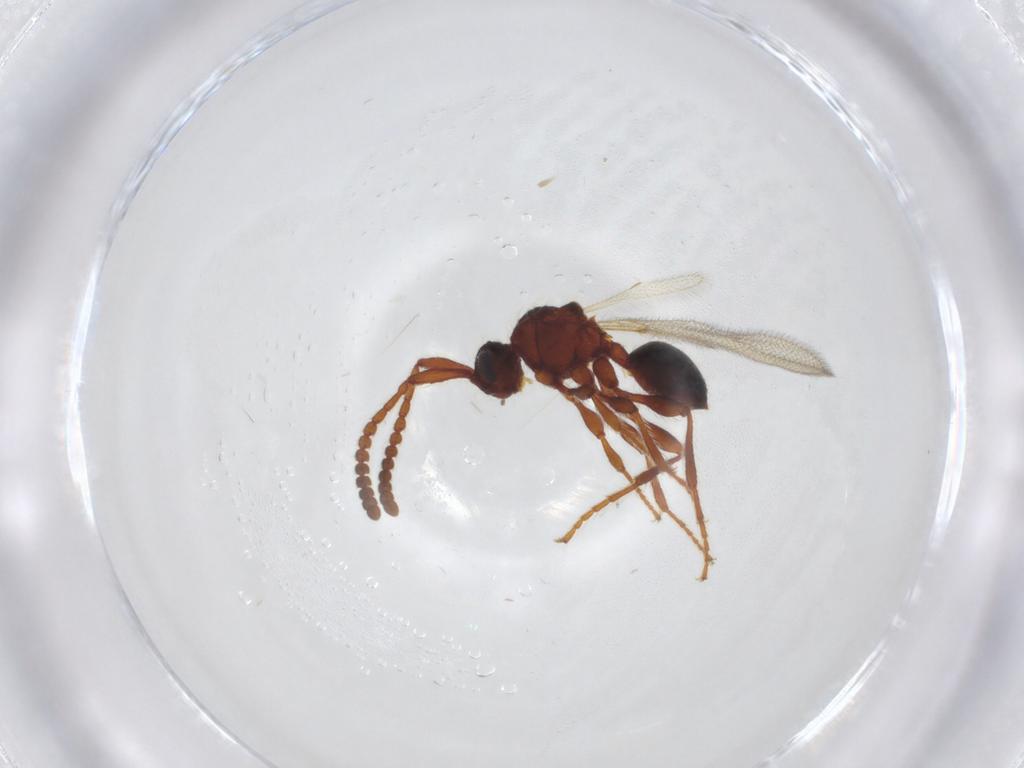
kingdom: Animalia
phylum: Arthropoda
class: Insecta
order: Hymenoptera
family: Diapriidae
